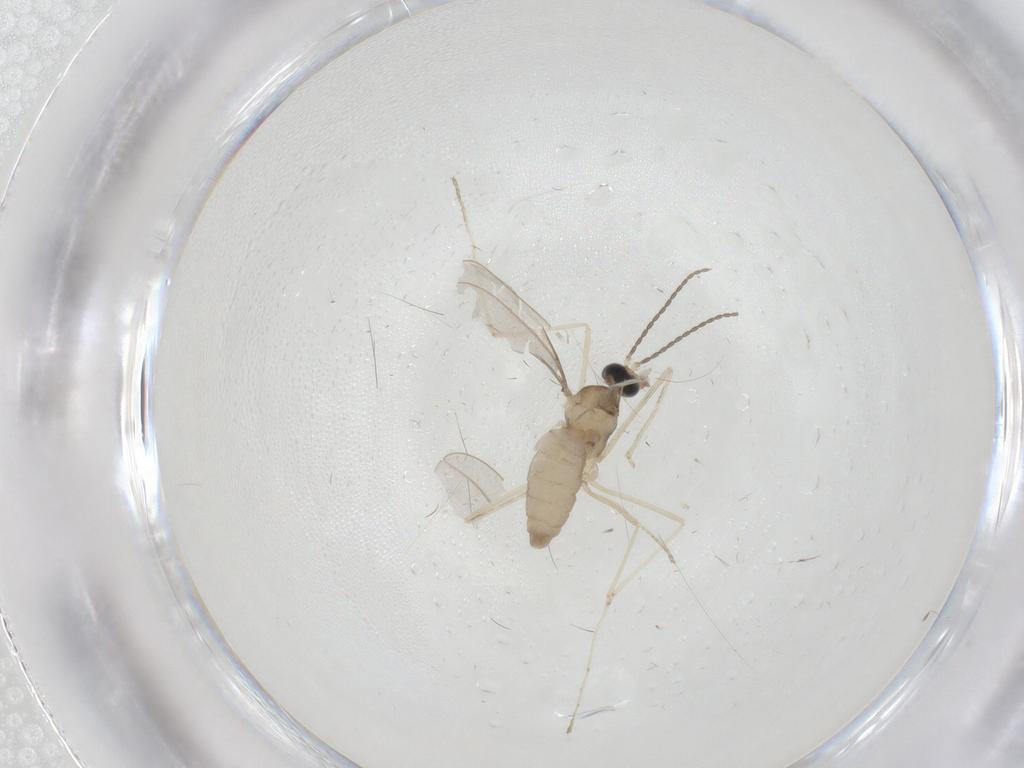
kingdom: Animalia
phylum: Arthropoda
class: Insecta
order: Diptera
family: Cecidomyiidae
